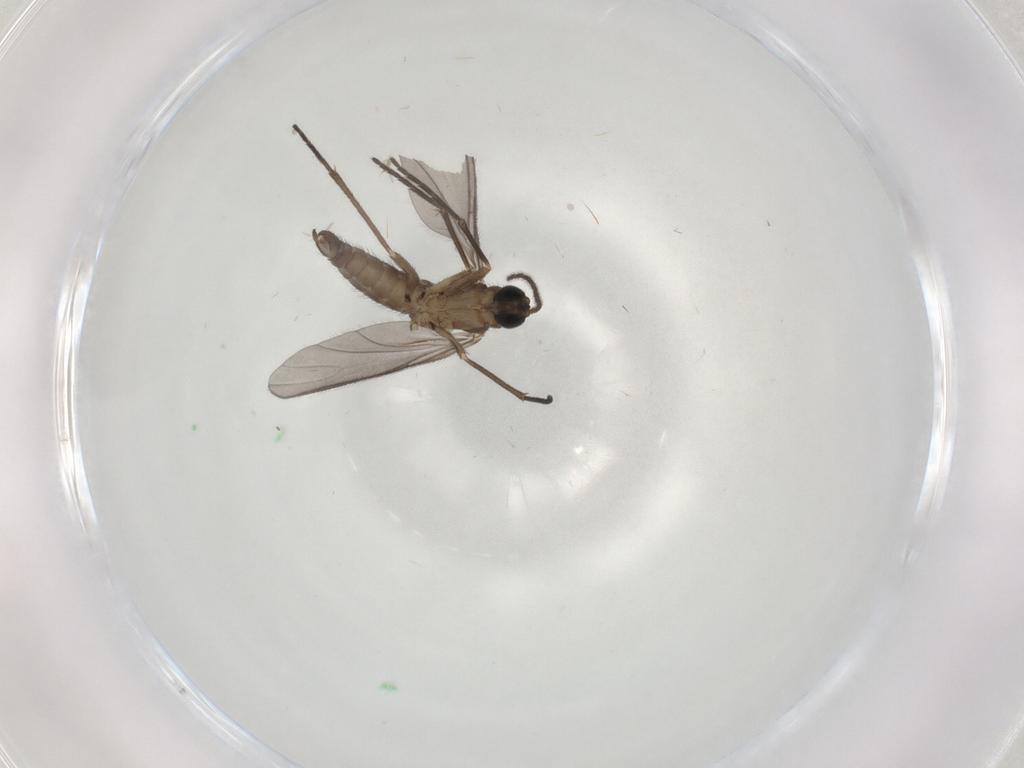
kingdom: Animalia
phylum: Arthropoda
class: Insecta
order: Diptera
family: Sciaridae
